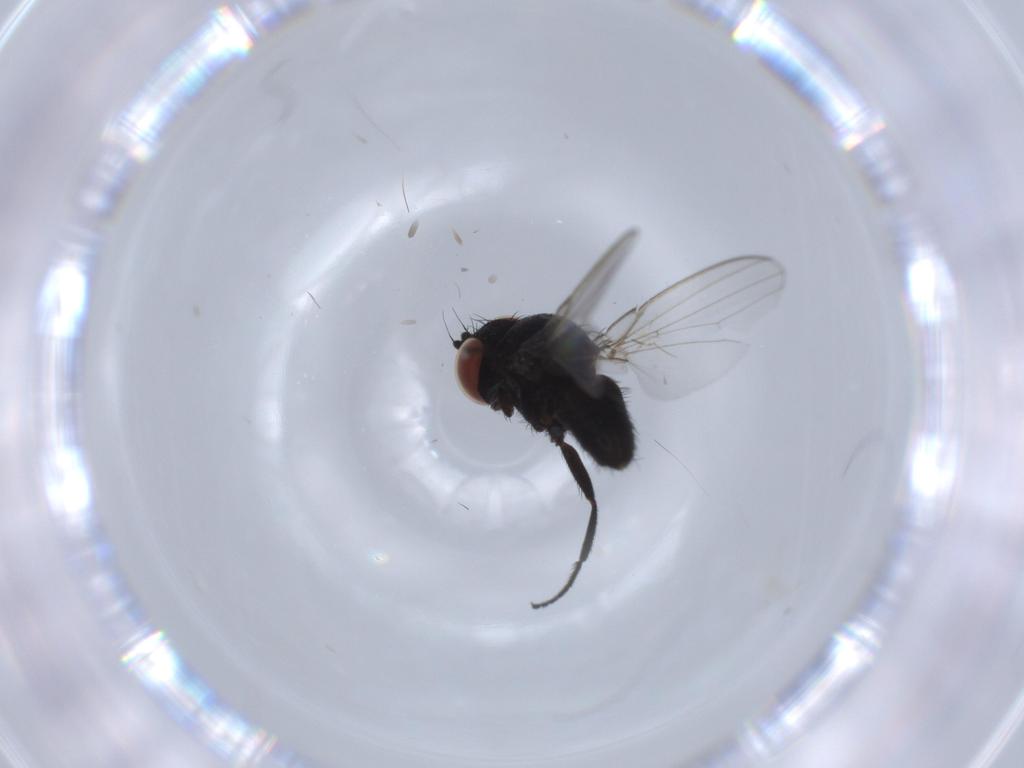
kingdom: Animalia
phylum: Arthropoda
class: Insecta
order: Diptera
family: Milichiidae
